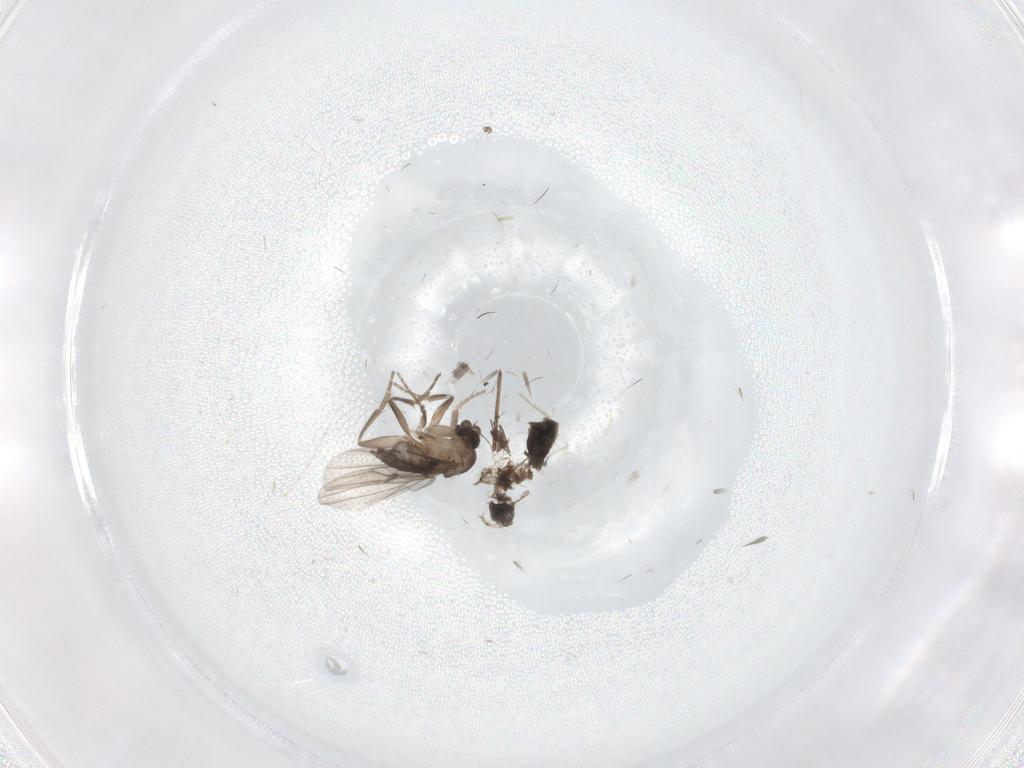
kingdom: Animalia
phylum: Arthropoda
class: Insecta
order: Diptera
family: Cecidomyiidae
